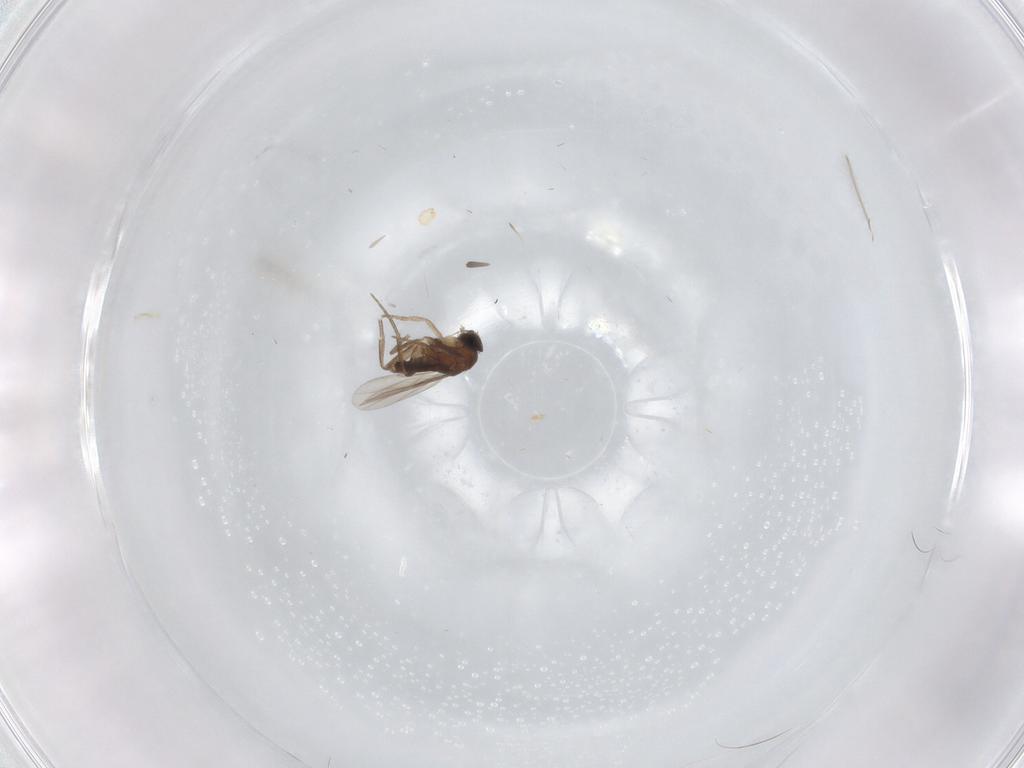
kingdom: Animalia
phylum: Arthropoda
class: Insecta
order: Diptera
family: Phoridae
